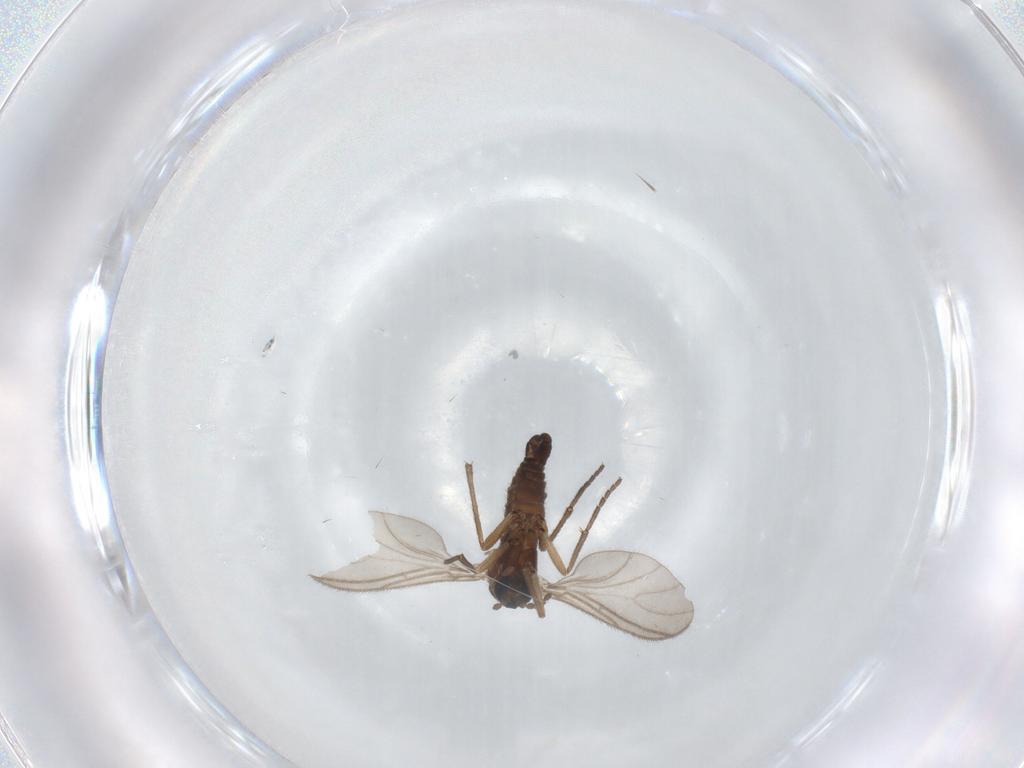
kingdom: Animalia
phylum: Arthropoda
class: Insecta
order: Diptera
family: Sciaridae
